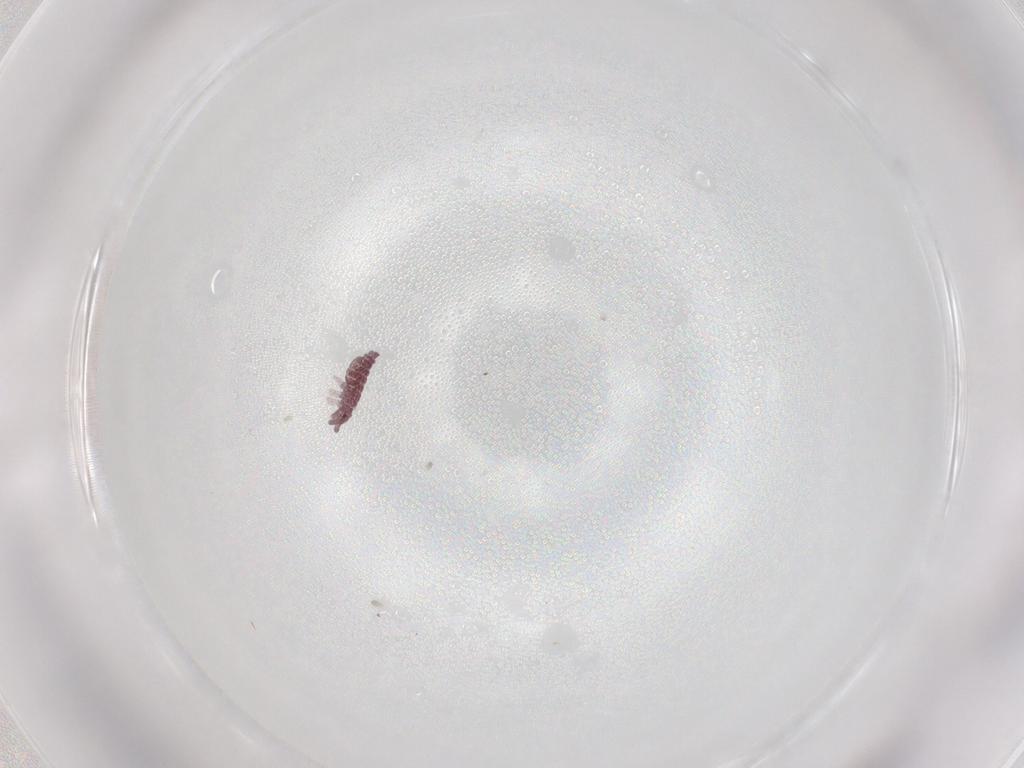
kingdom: Animalia
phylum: Arthropoda
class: Collembola
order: Poduromorpha
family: Hypogastruridae
